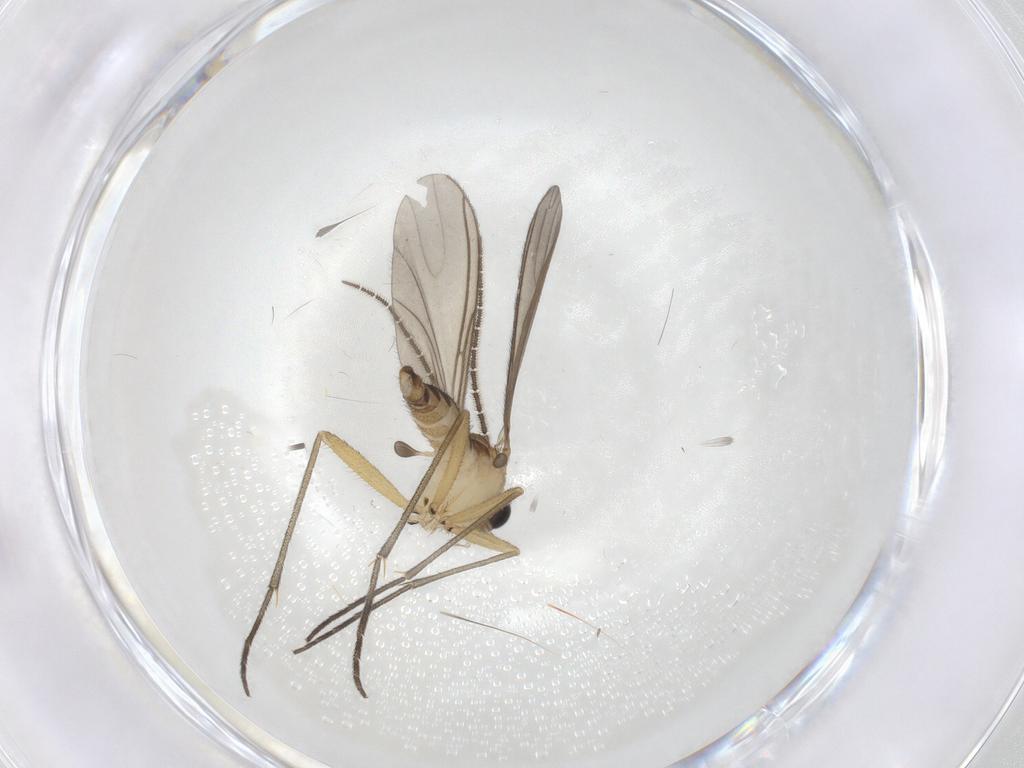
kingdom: Animalia
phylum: Arthropoda
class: Insecta
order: Diptera
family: Sciaridae
